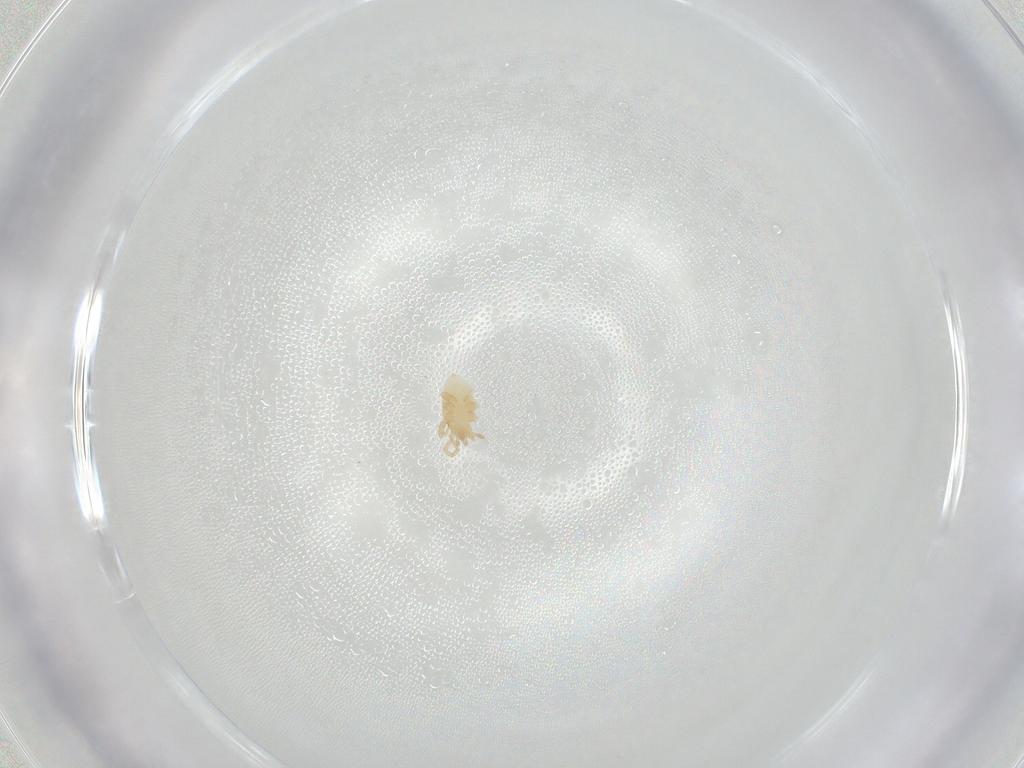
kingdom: Animalia
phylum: Arthropoda
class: Arachnida
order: Mesostigmata
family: Parasitidae
